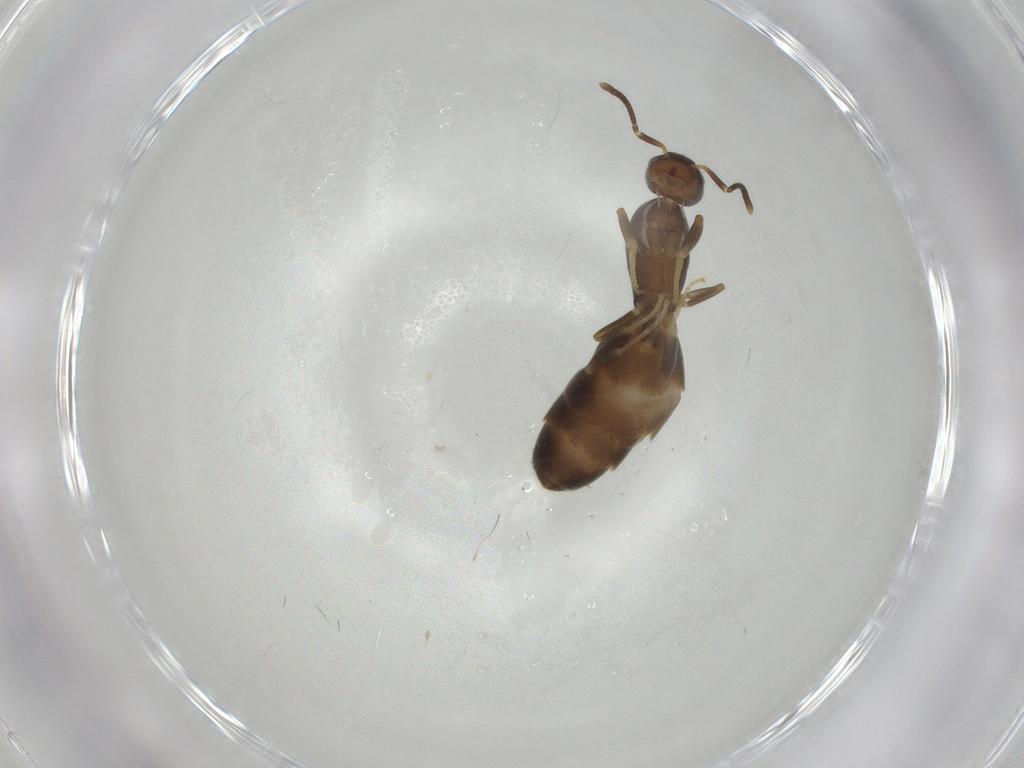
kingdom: Animalia
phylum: Arthropoda
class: Insecta
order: Hymenoptera
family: Formicidae
